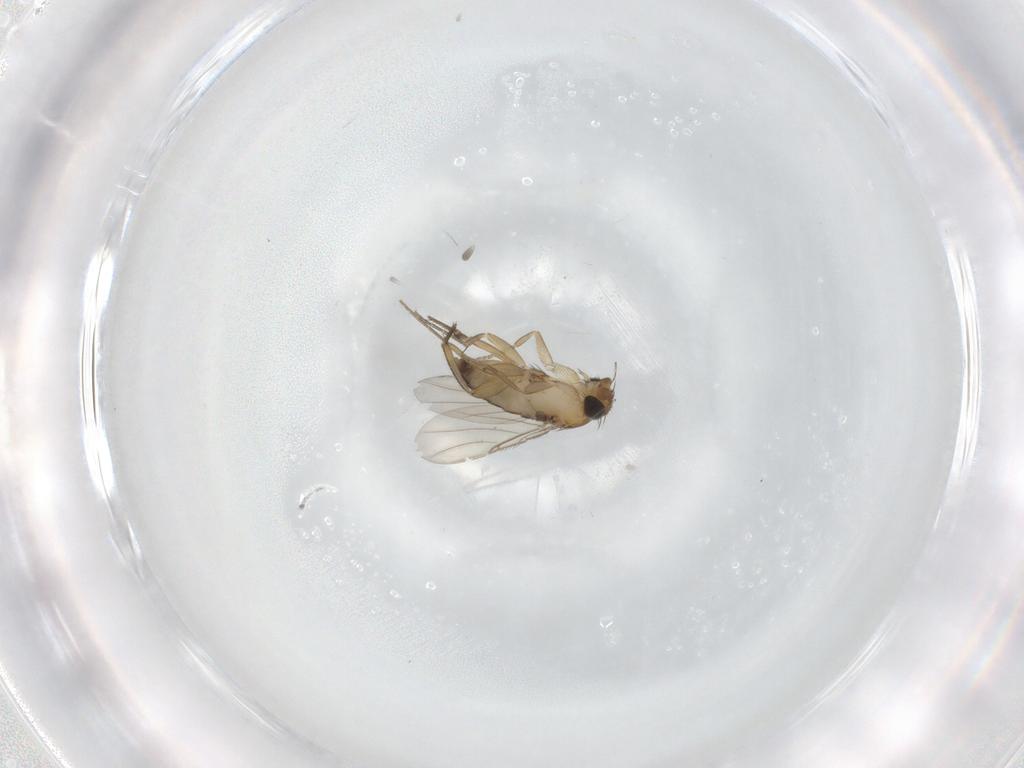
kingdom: Animalia
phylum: Arthropoda
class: Insecta
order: Diptera
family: Phoridae
